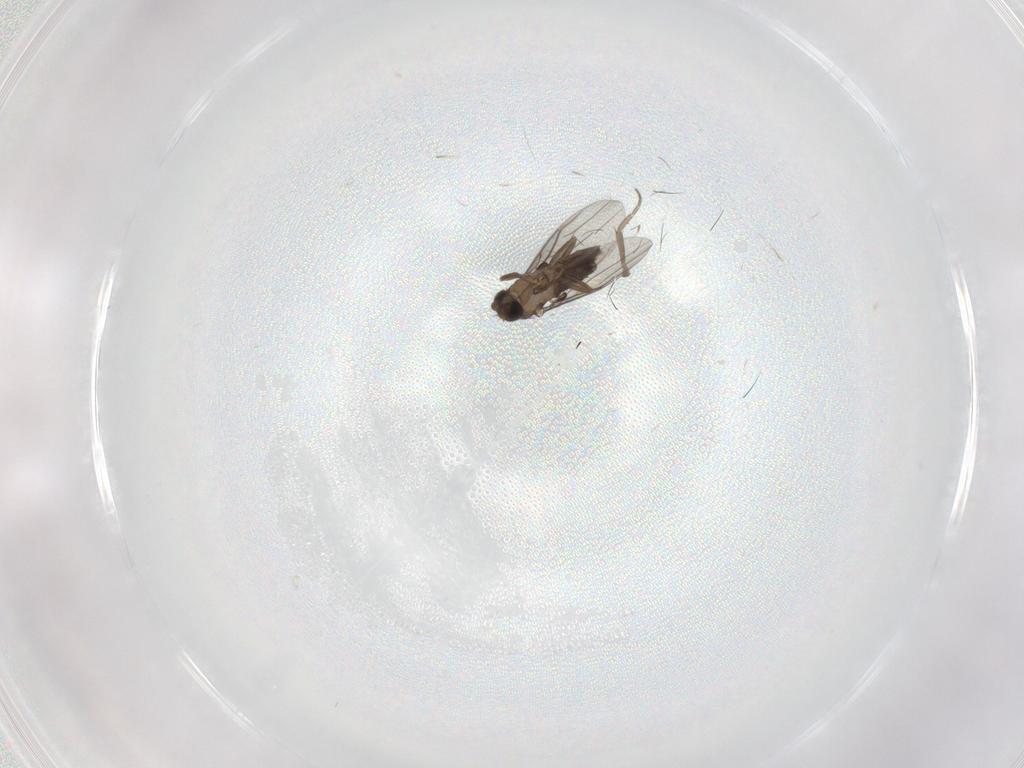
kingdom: Animalia
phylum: Arthropoda
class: Insecta
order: Diptera
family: Phoridae
